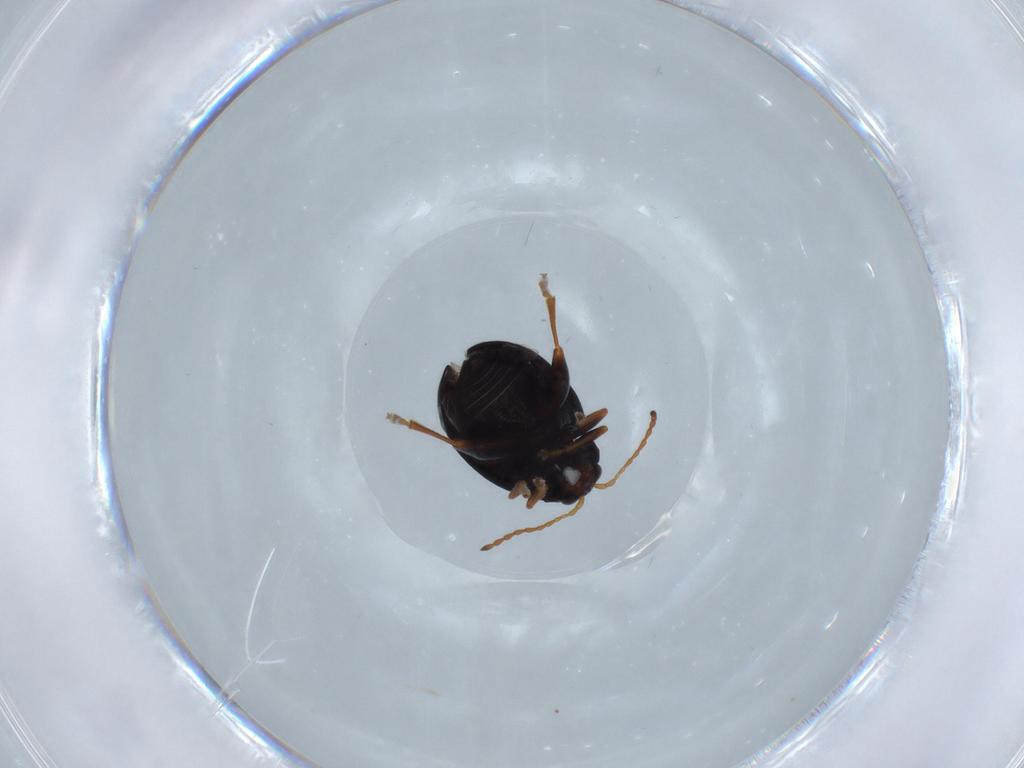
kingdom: Animalia
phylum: Arthropoda
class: Insecta
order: Coleoptera
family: Chrysomelidae
